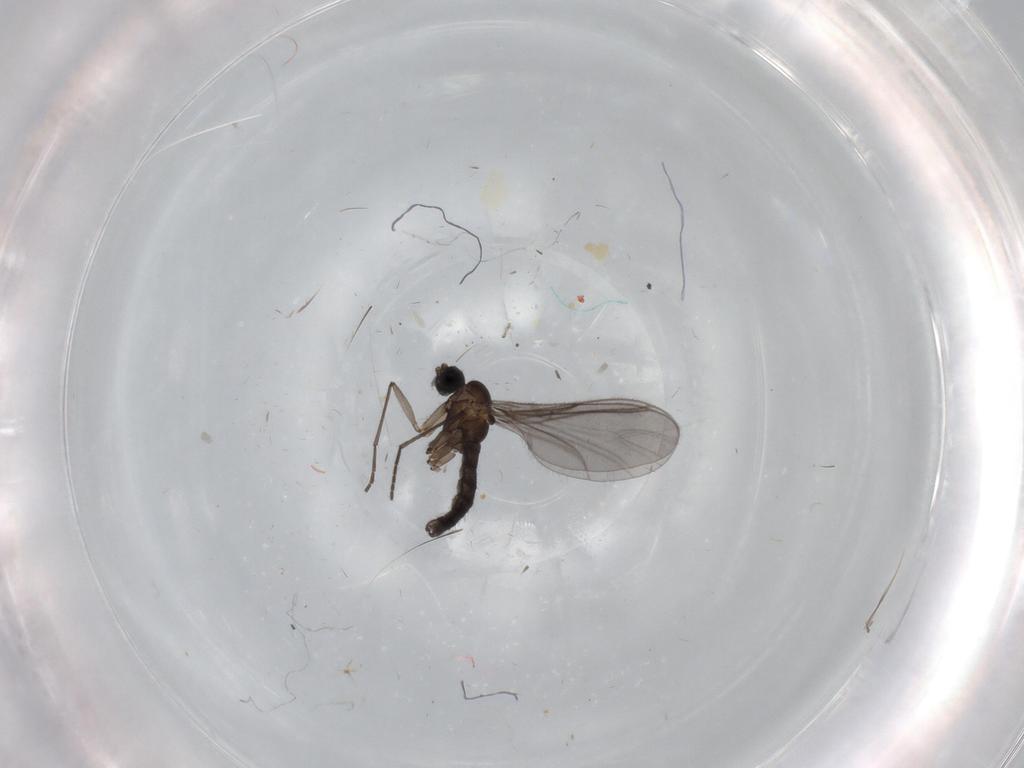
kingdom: Animalia
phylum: Arthropoda
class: Insecta
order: Diptera
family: Sciaridae
